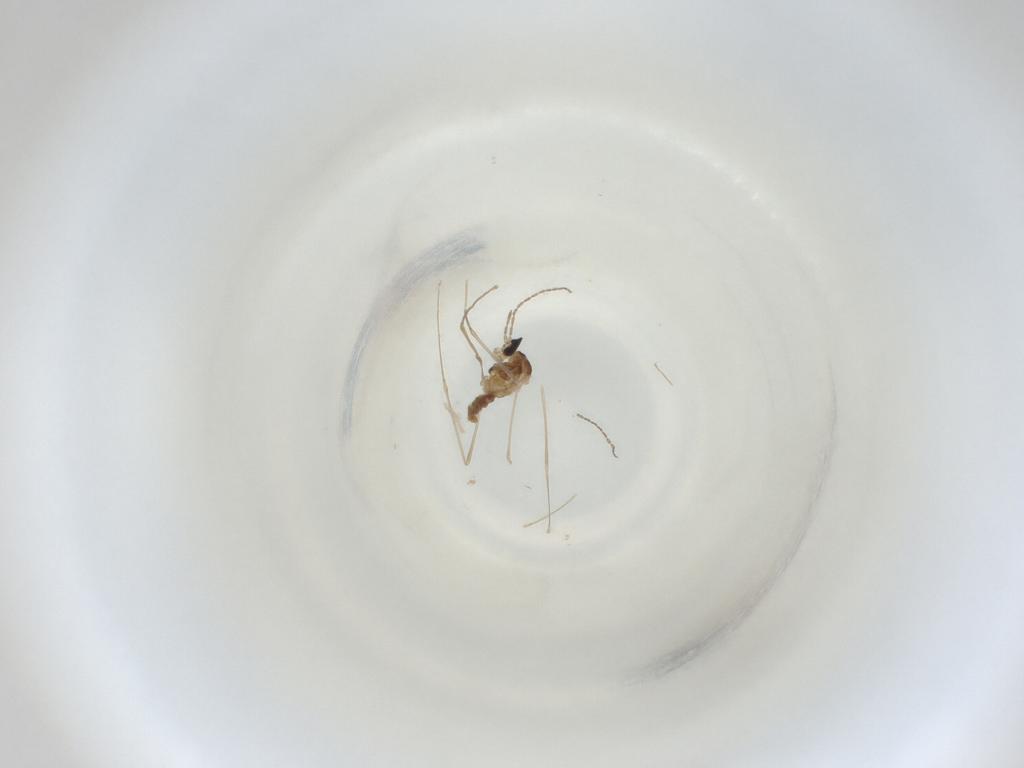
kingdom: Animalia
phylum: Arthropoda
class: Insecta
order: Diptera
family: Cecidomyiidae
